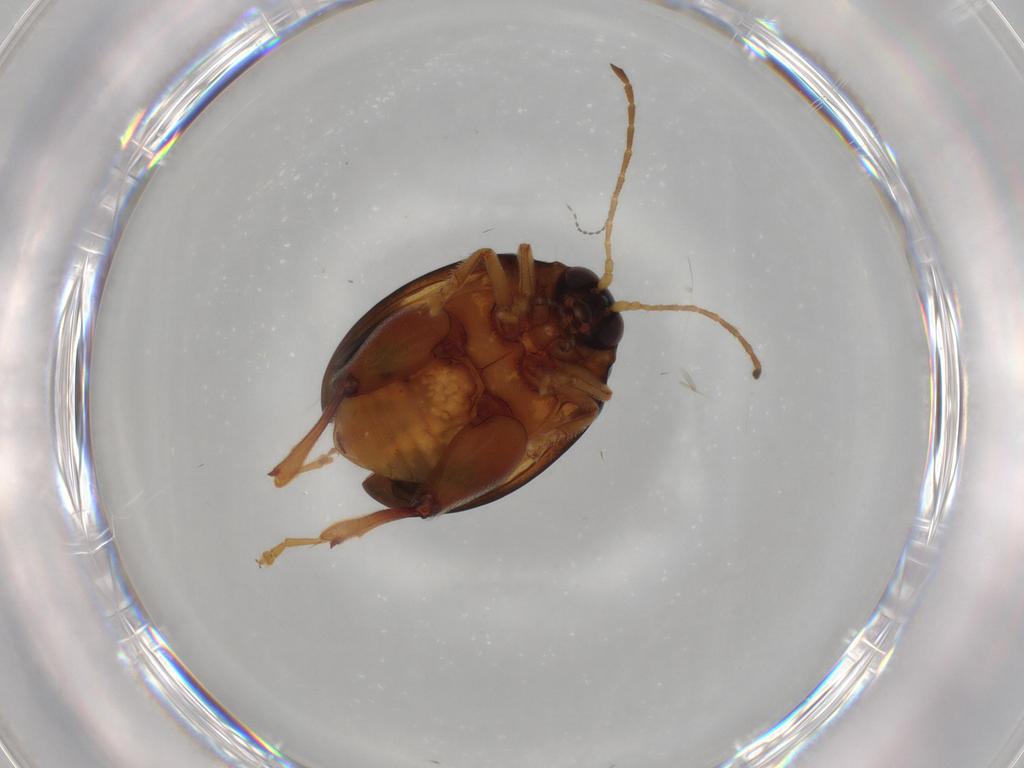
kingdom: Animalia
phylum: Arthropoda
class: Insecta
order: Coleoptera
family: Chrysomelidae
